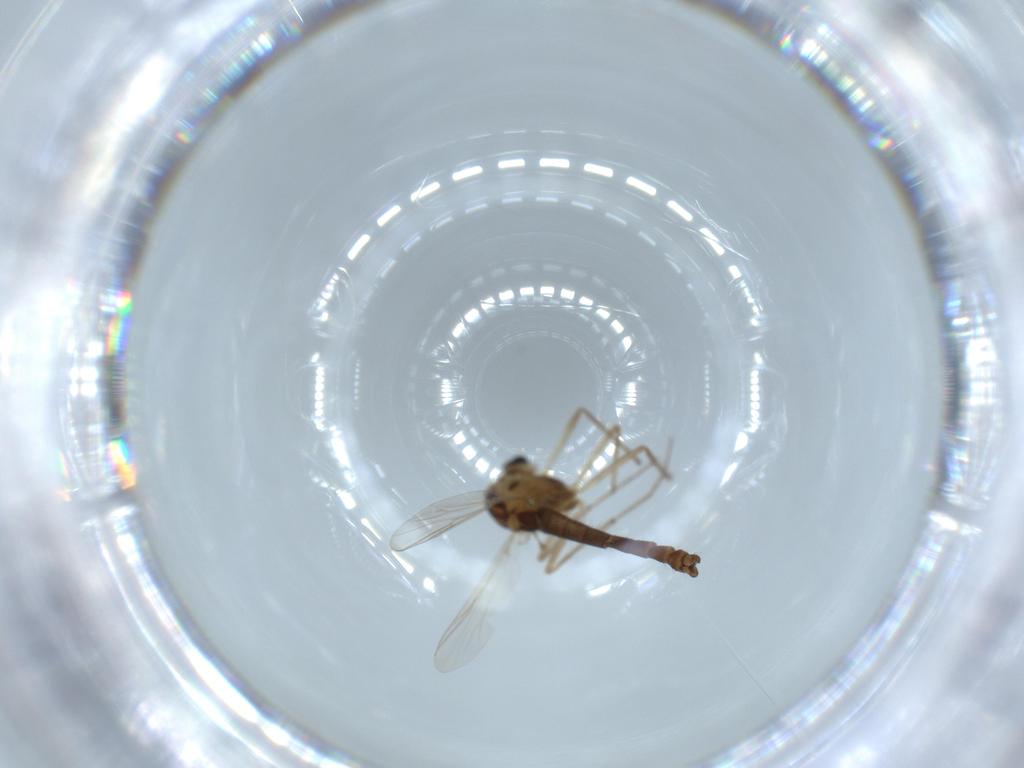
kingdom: Animalia
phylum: Arthropoda
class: Insecta
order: Diptera
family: Chironomidae
